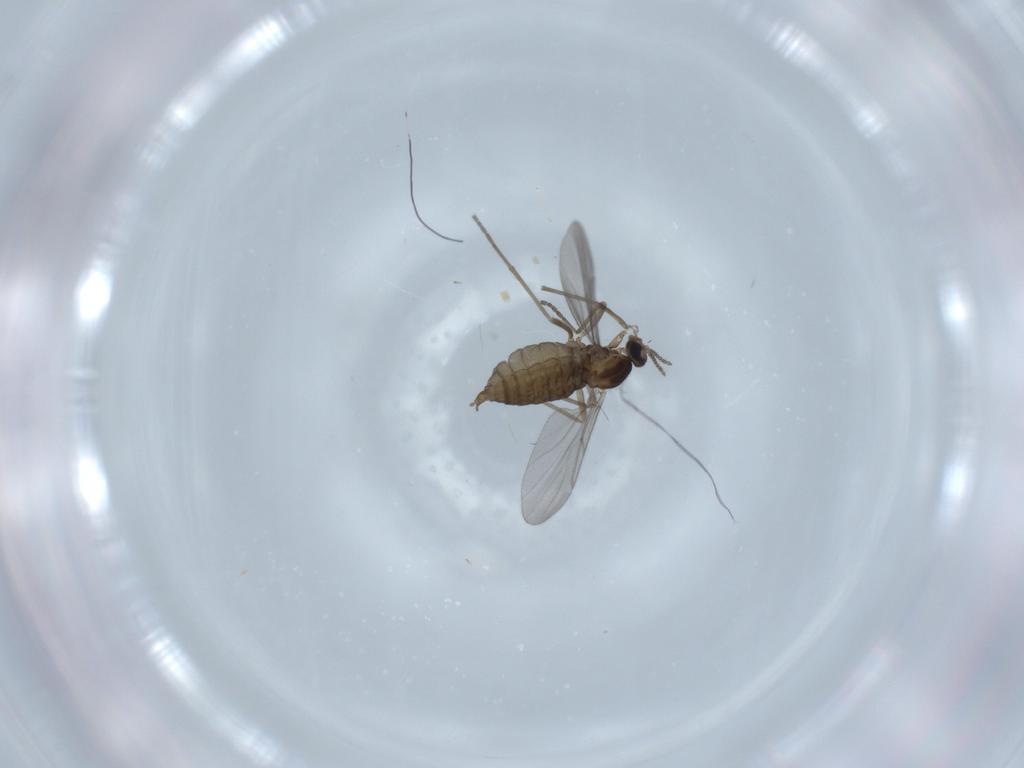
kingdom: Animalia
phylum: Arthropoda
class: Insecta
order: Diptera
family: Cecidomyiidae
